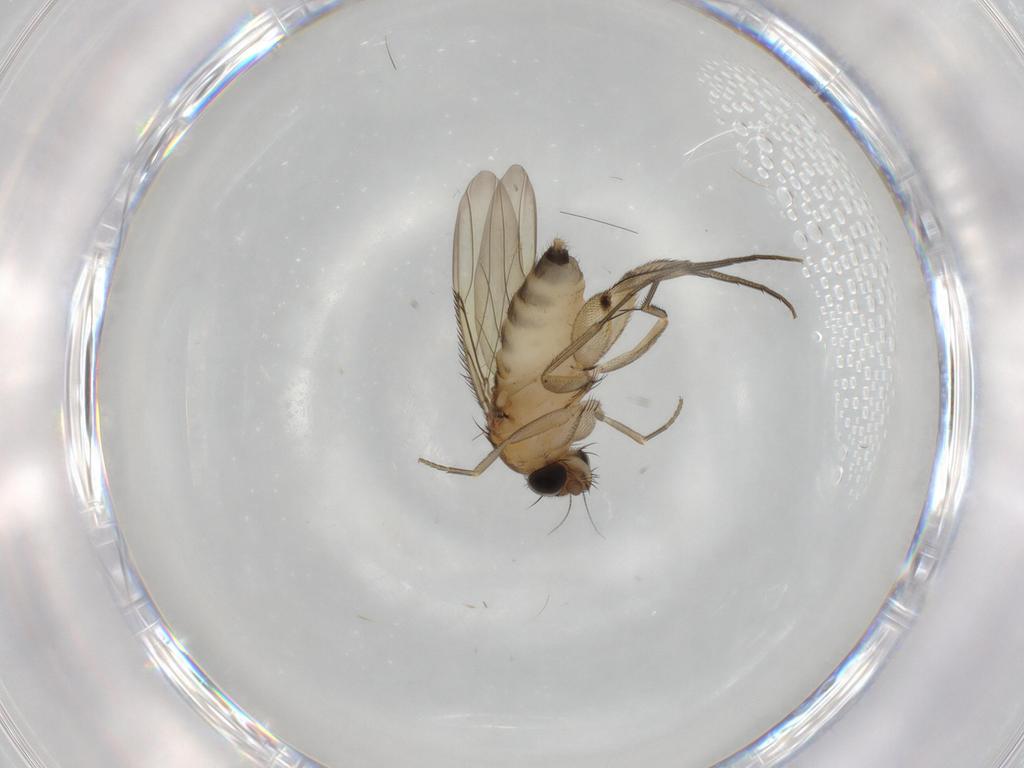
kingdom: Animalia
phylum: Arthropoda
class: Insecta
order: Diptera
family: Phoridae
